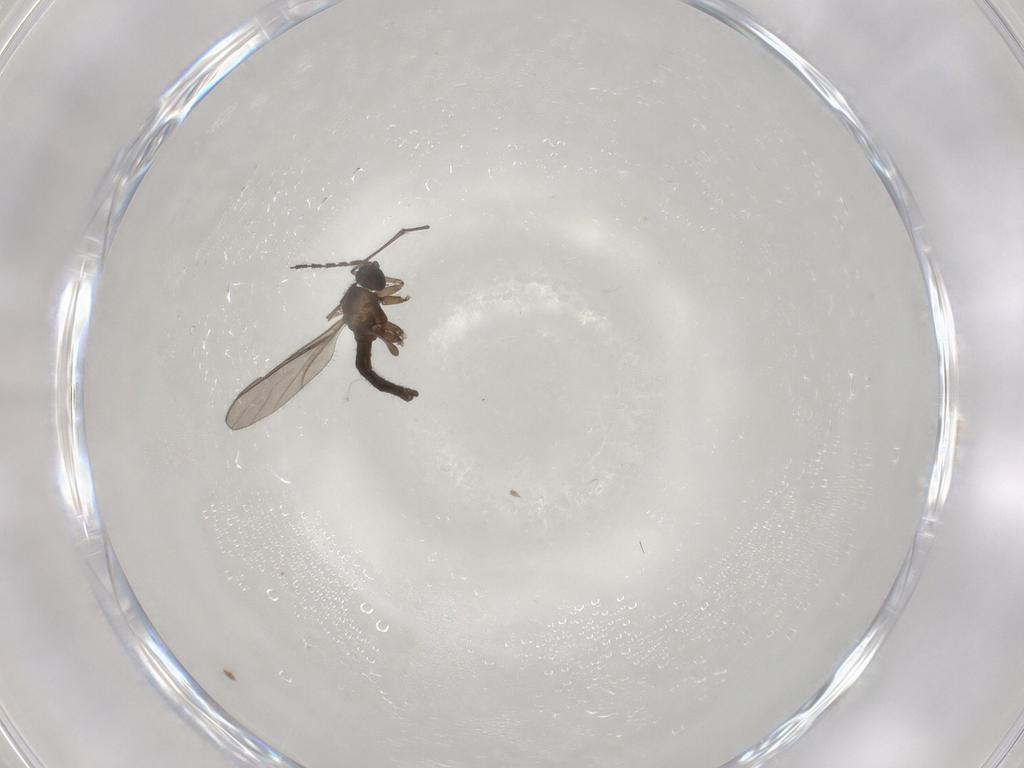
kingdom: Animalia
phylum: Arthropoda
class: Insecta
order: Diptera
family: Sciaridae
